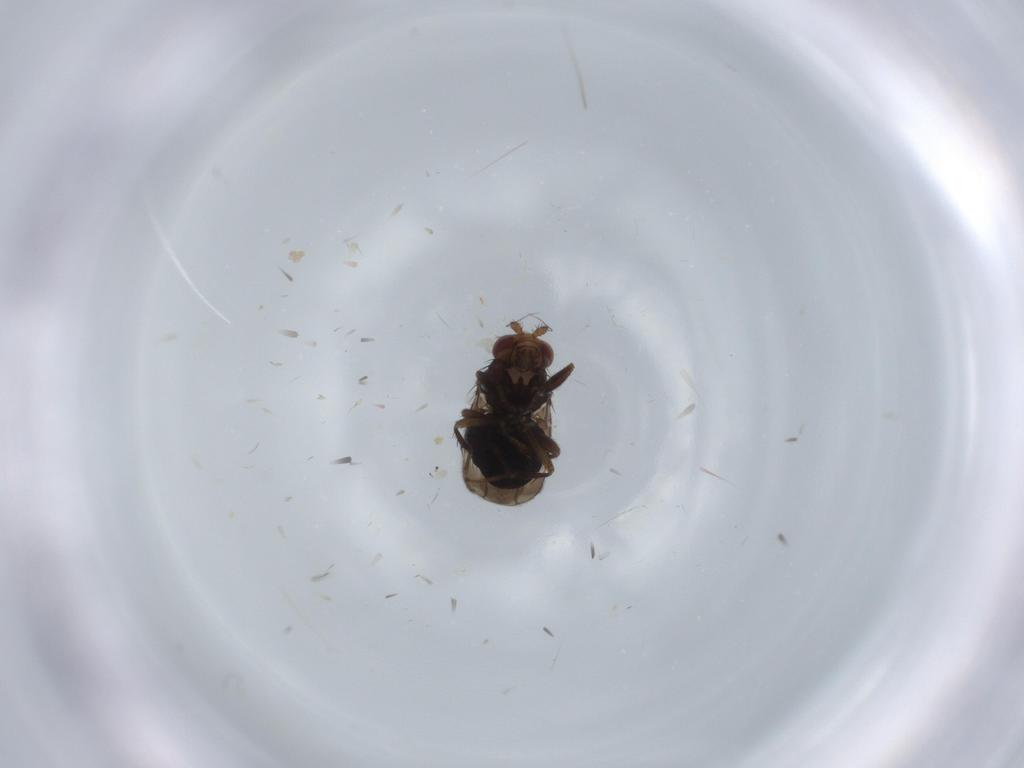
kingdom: Animalia
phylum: Arthropoda
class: Insecta
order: Diptera
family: Sphaeroceridae
